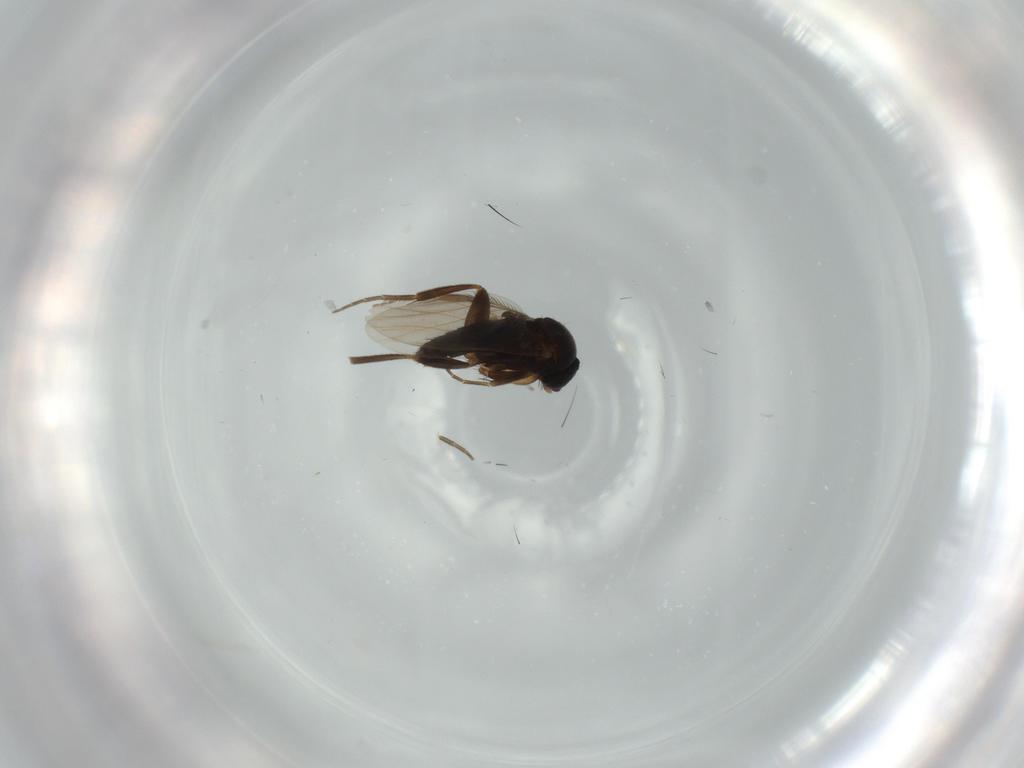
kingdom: Animalia
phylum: Arthropoda
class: Insecta
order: Diptera
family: Phoridae
